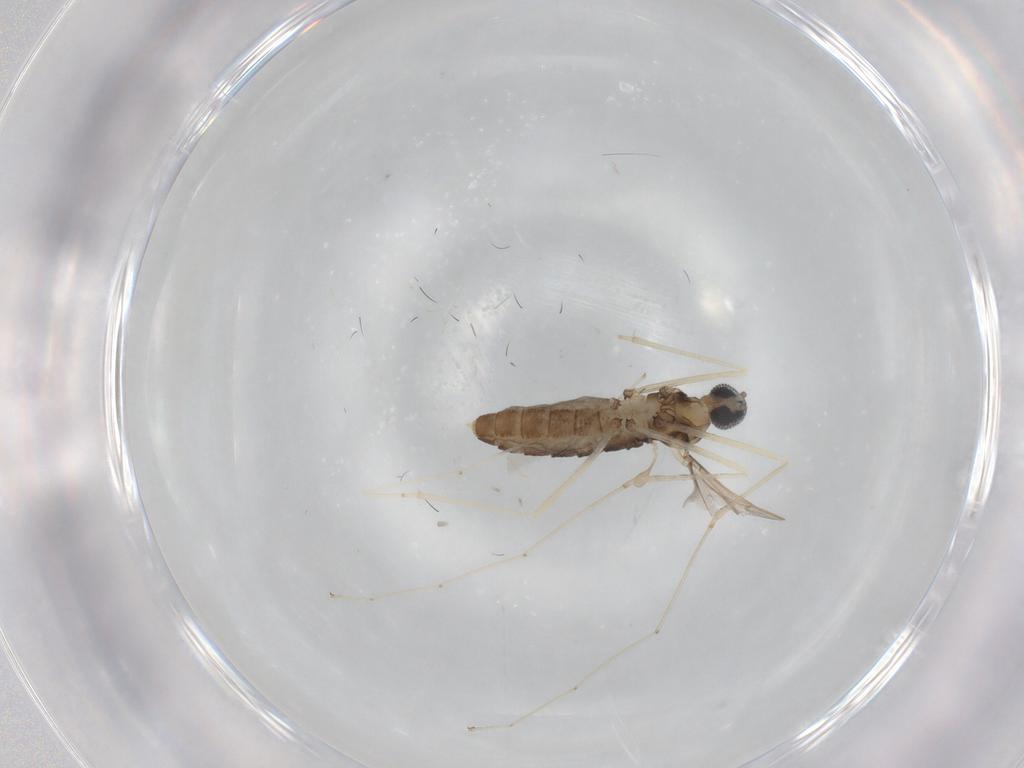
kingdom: Animalia
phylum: Arthropoda
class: Insecta
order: Diptera
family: Cecidomyiidae
